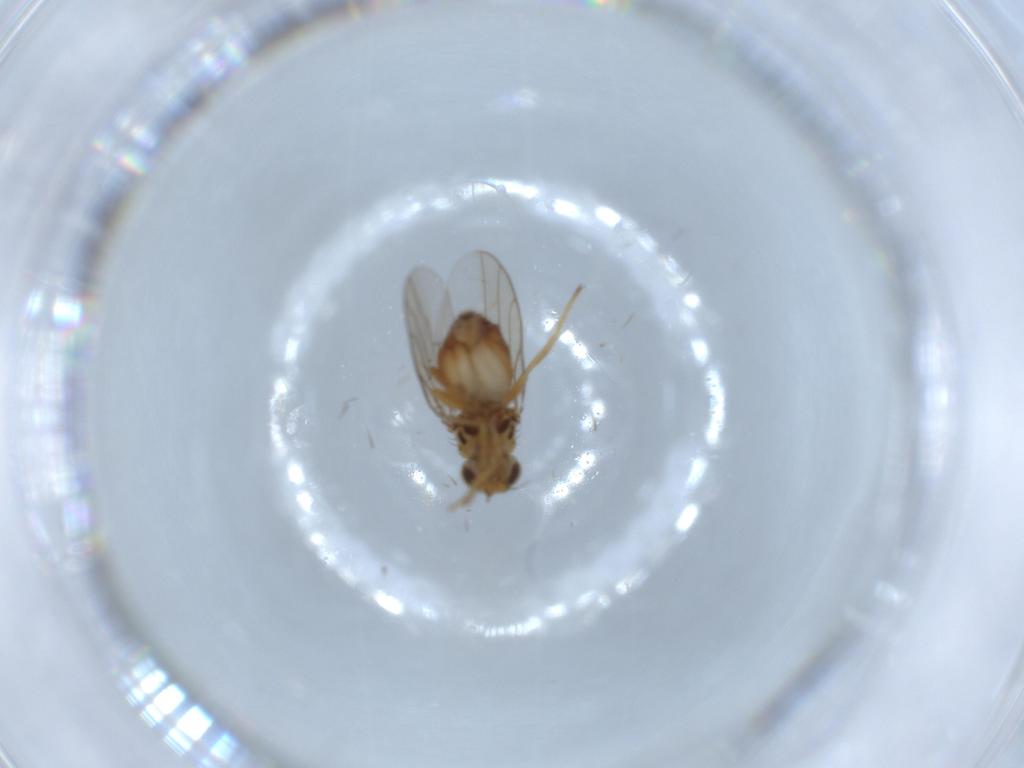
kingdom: Animalia
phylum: Arthropoda
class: Insecta
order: Diptera
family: Chloropidae
